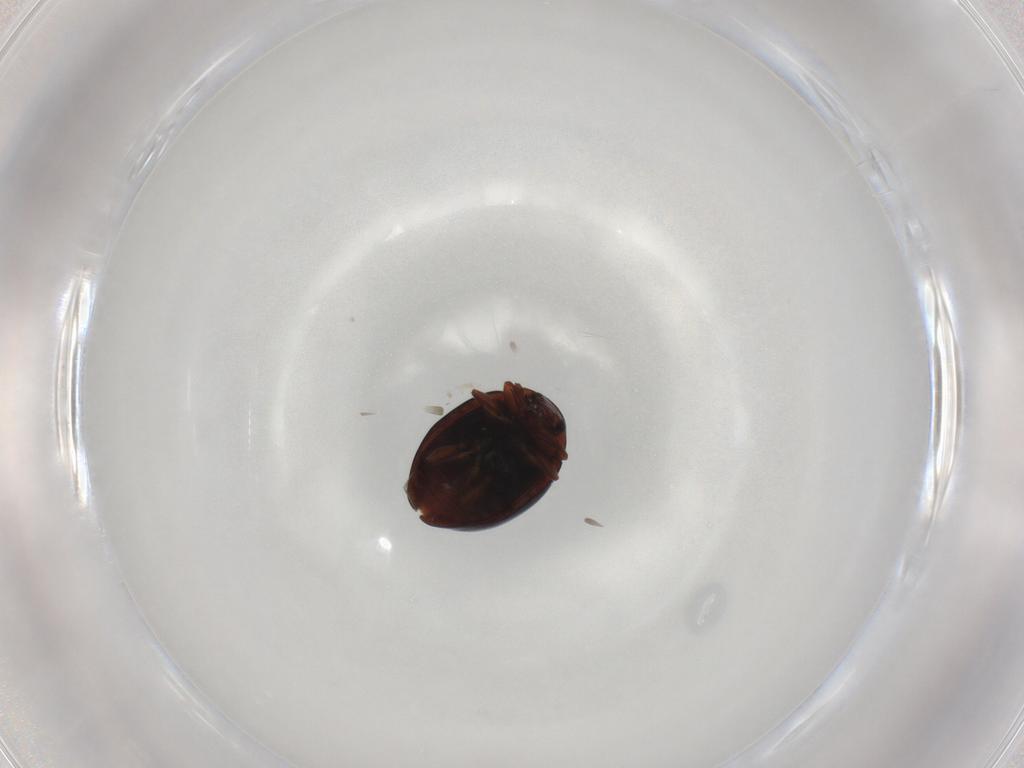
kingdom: Animalia
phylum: Arthropoda
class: Insecta
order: Coleoptera
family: Coccinellidae
